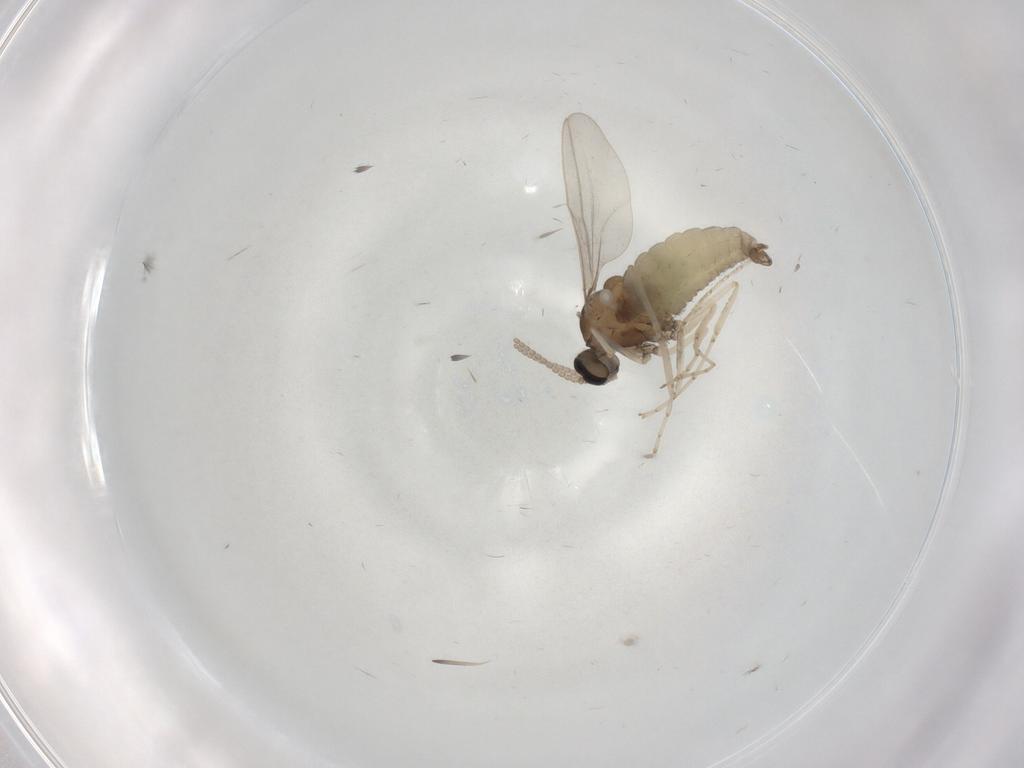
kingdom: Animalia
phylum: Arthropoda
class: Insecta
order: Diptera
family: Cecidomyiidae
